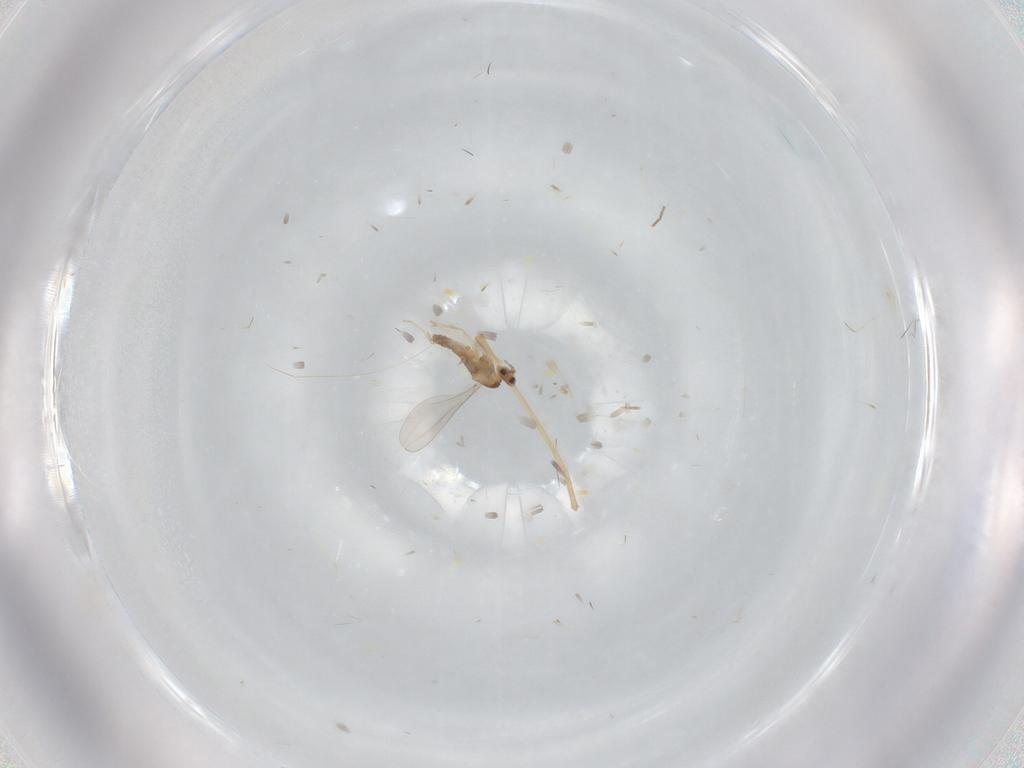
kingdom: Animalia
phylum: Arthropoda
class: Insecta
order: Diptera
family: Cecidomyiidae
